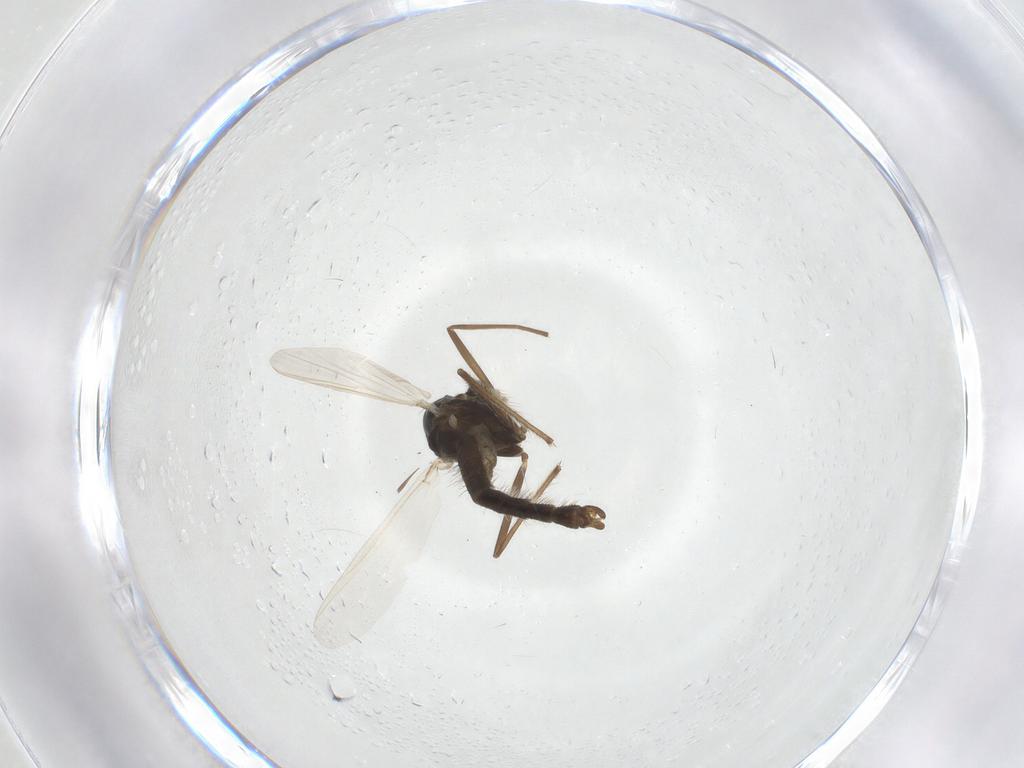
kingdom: Animalia
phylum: Arthropoda
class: Insecta
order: Diptera
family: Chironomidae
